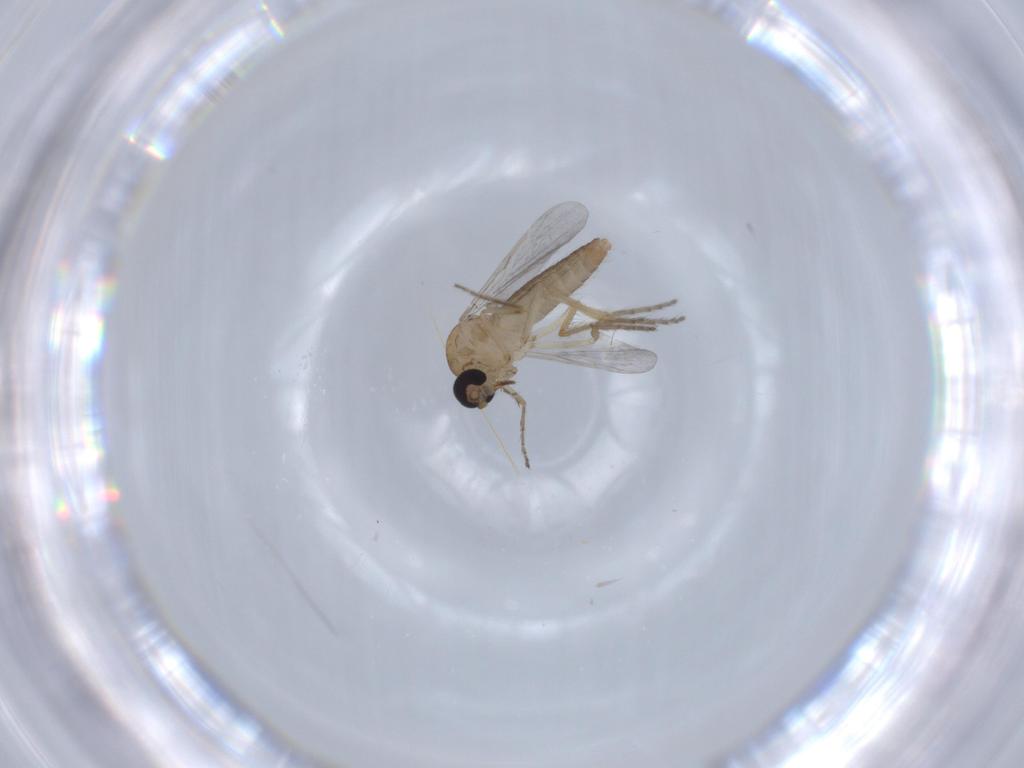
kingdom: Animalia
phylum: Arthropoda
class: Insecta
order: Diptera
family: Ceratopogonidae
